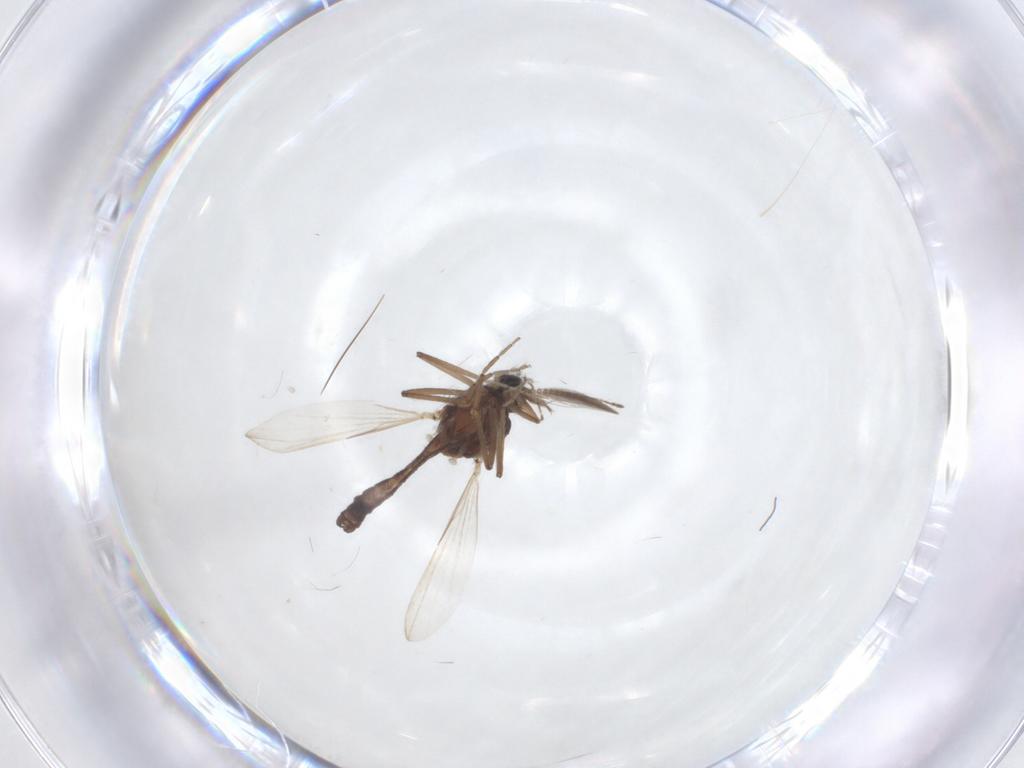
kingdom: Animalia
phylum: Arthropoda
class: Insecta
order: Diptera
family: Ceratopogonidae
